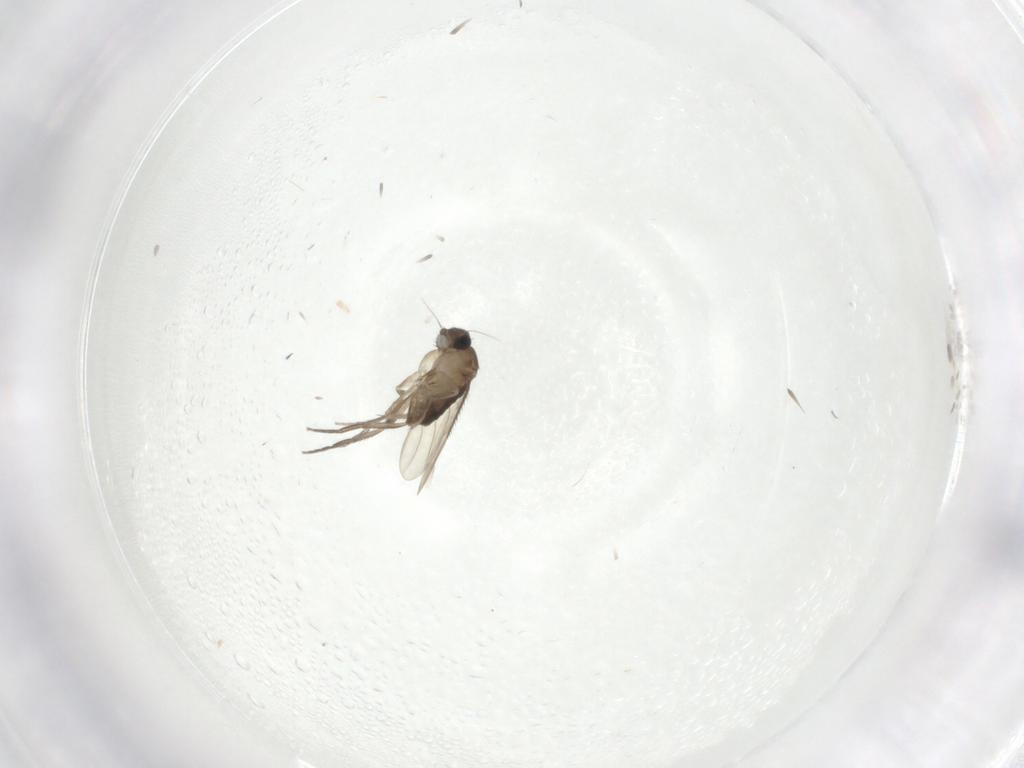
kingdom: Animalia
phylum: Arthropoda
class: Insecta
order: Diptera
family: Phoridae
